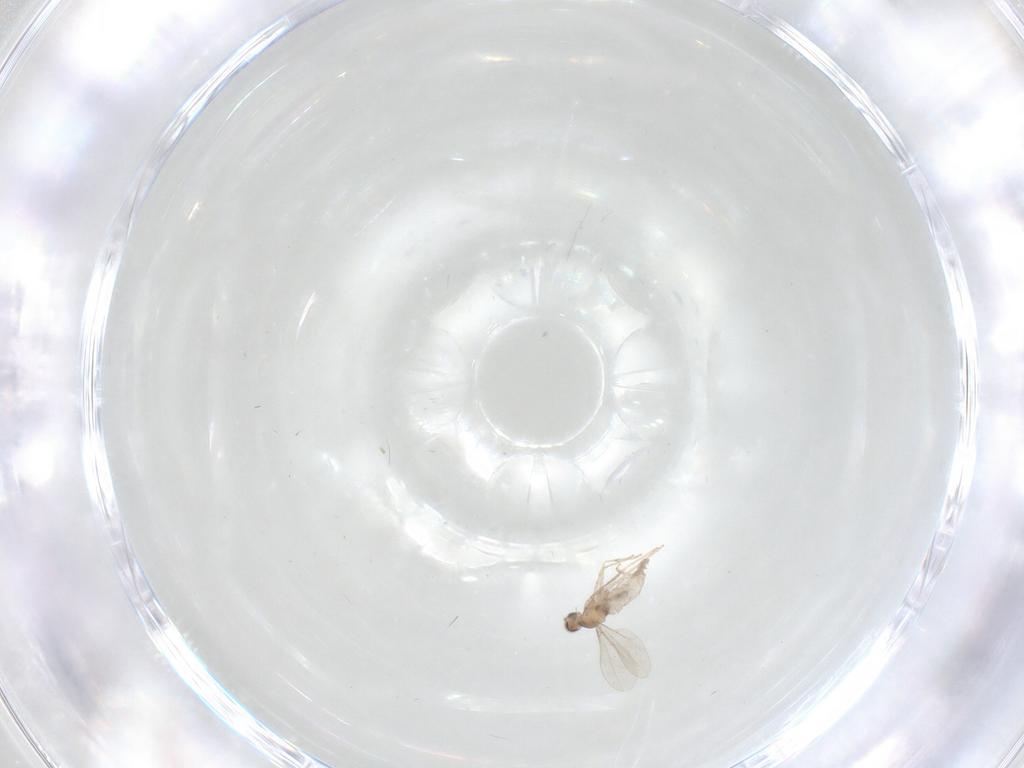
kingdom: Animalia
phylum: Arthropoda
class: Insecta
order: Diptera
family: Cecidomyiidae
